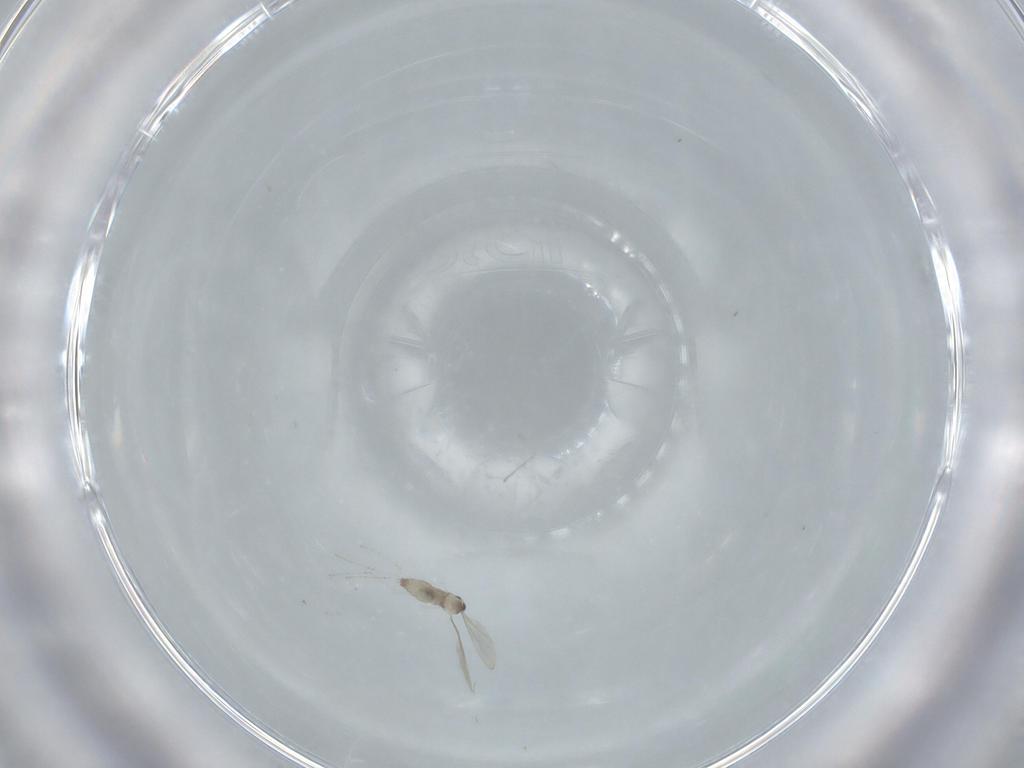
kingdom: Animalia
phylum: Arthropoda
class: Insecta
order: Diptera
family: Cecidomyiidae
